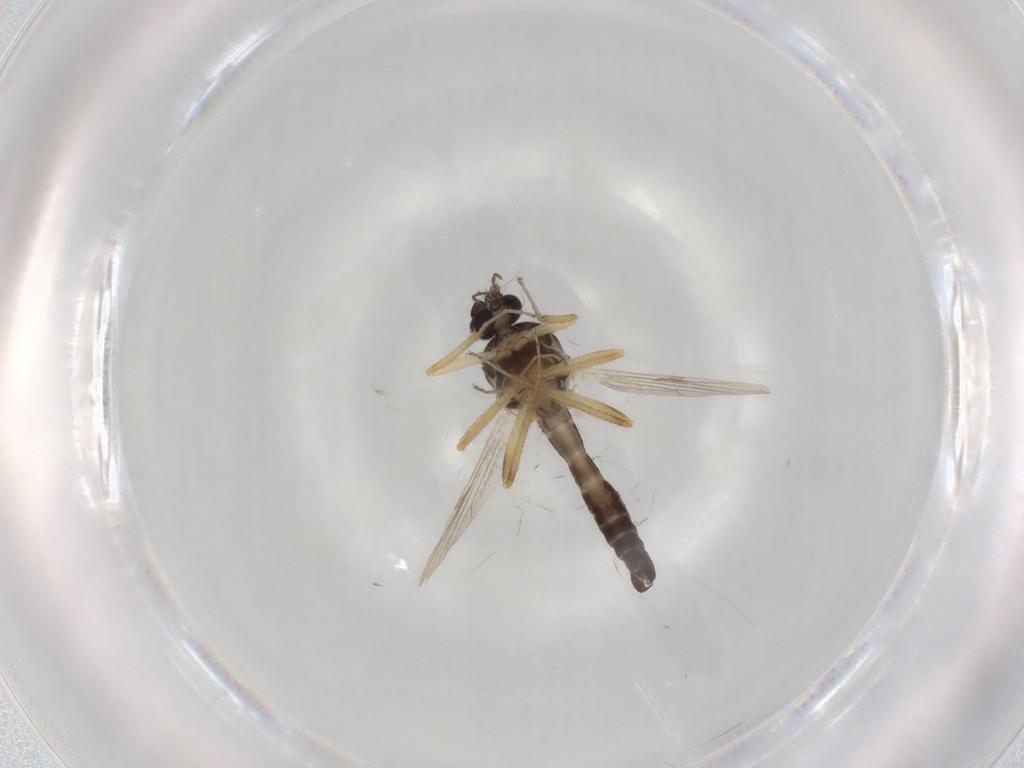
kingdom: Animalia
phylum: Arthropoda
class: Insecta
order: Diptera
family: Ceratopogonidae
